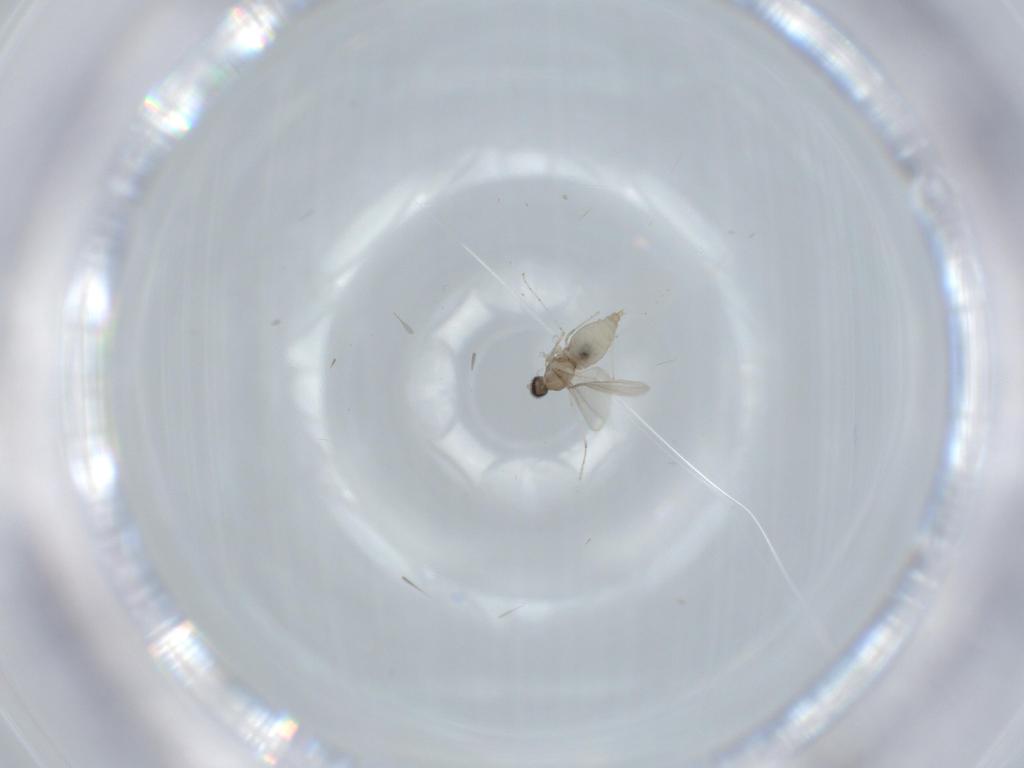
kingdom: Animalia
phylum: Arthropoda
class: Insecta
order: Diptera
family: Cecidomyiidae
